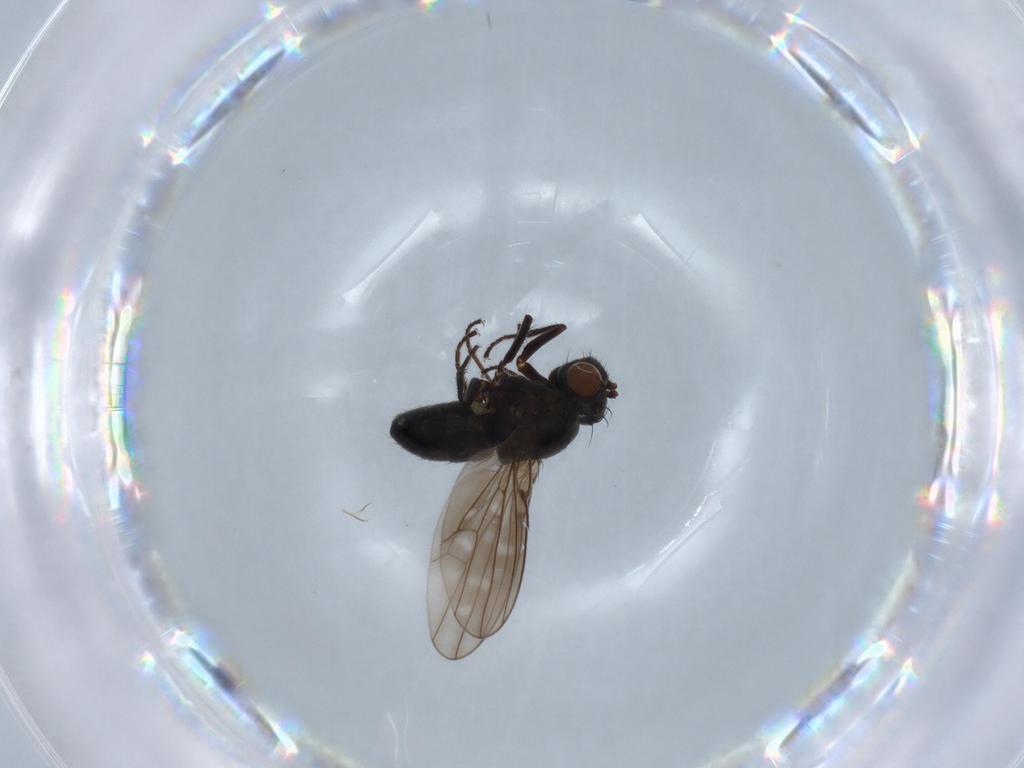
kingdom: Animalia
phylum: Arthropoda
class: Insecta
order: Diptera
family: Ephydridae
